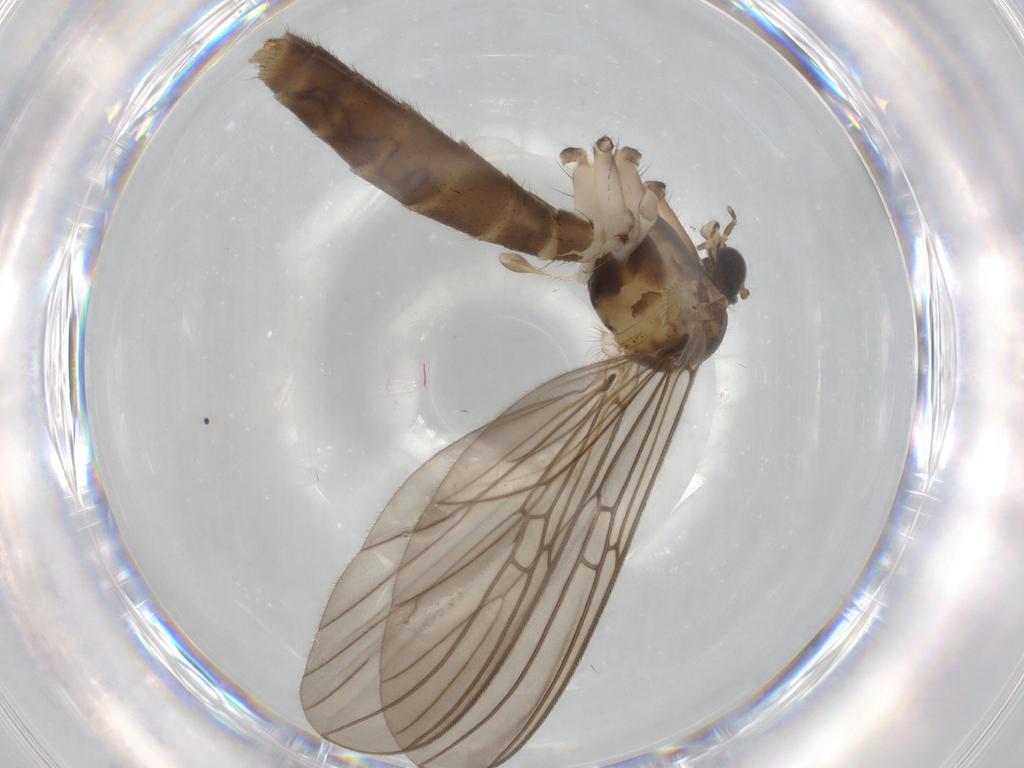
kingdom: Animalia
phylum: Arthropoda
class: Insecta
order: Diptera
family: Mycetophilidae
